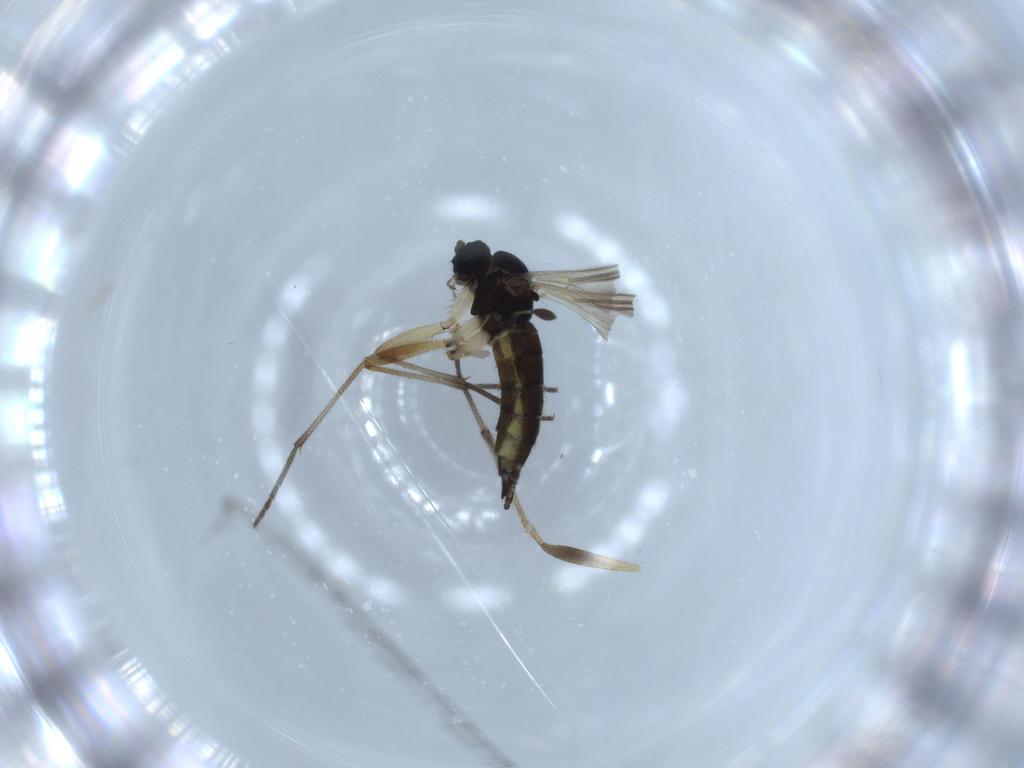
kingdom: Animalia
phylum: Arthropoda
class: Insecta
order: Diptera
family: Sciaridae
